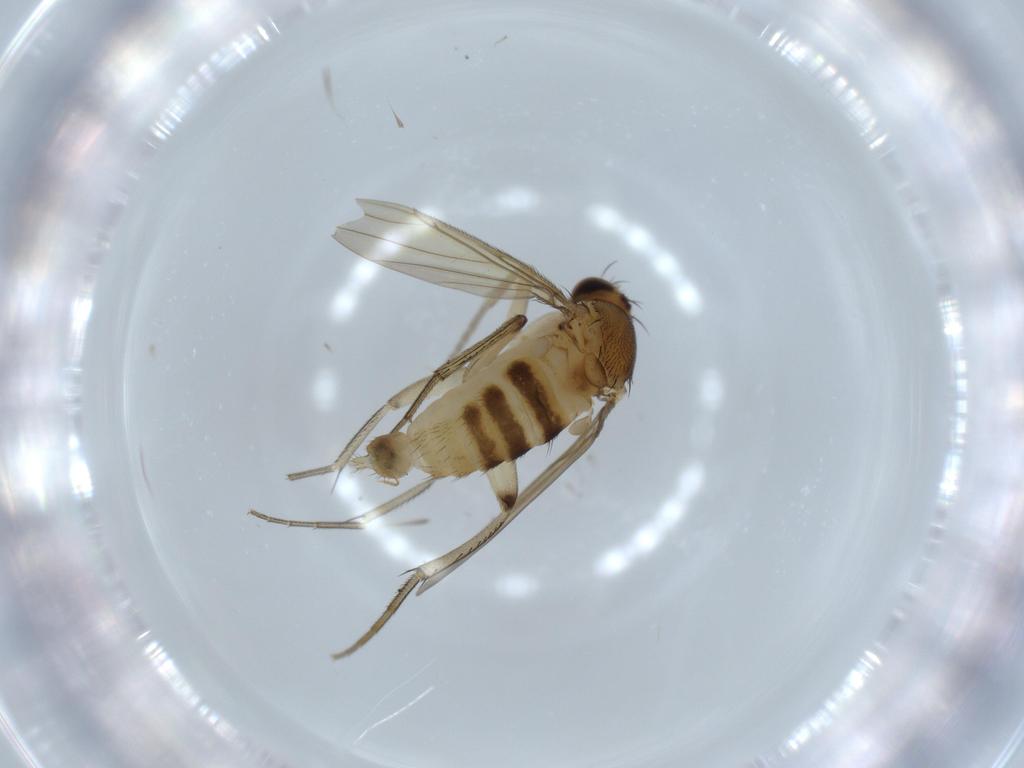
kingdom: Animalia
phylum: Arthropoda
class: Insecta
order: Diptera
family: Phoridae
